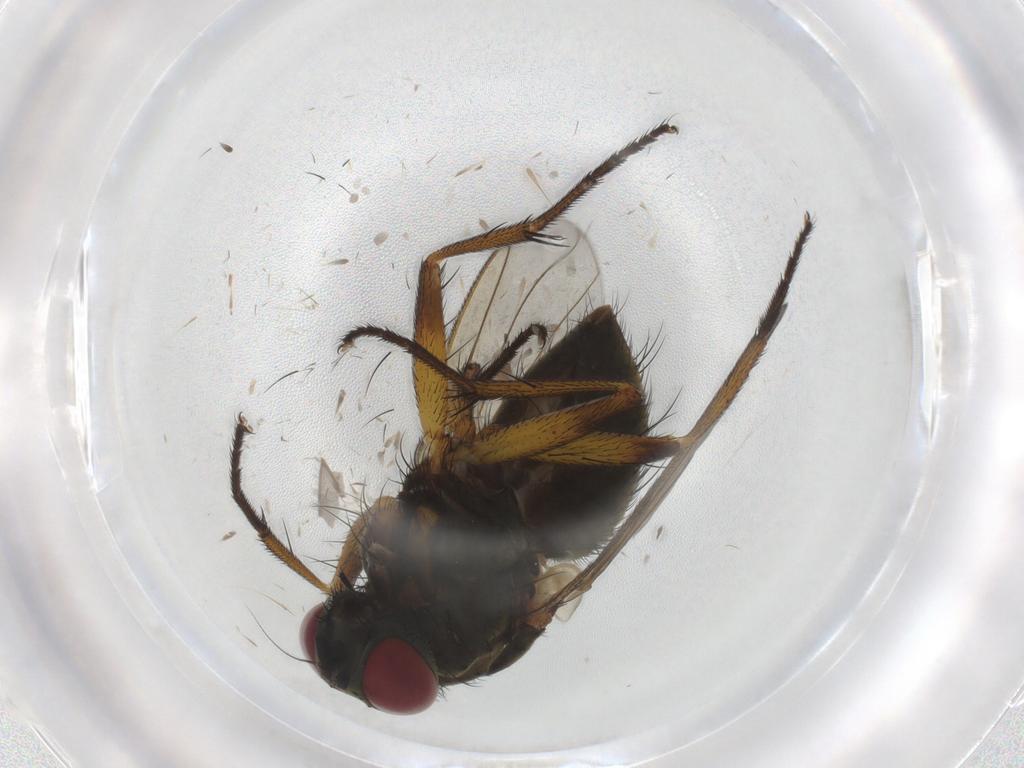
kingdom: Animalia
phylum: Arthropoda
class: Insecta
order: Diptera
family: Muscidae
